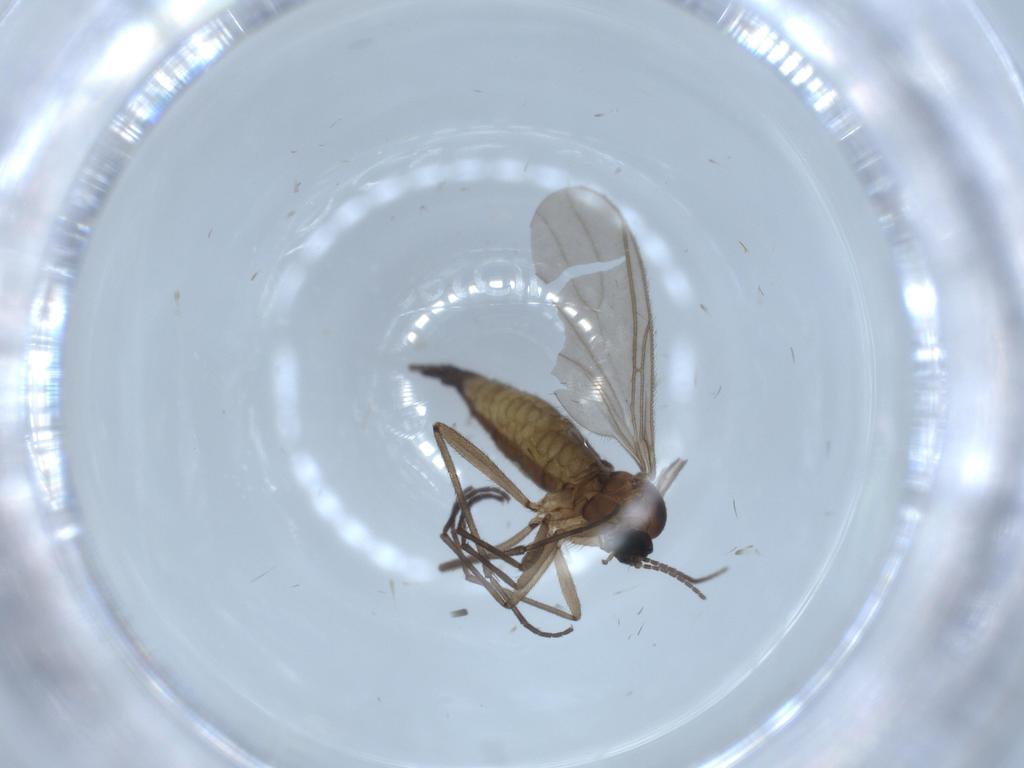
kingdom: Animalia
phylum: Arthropoda
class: Insecta
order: Diptera
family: Sciaridae
